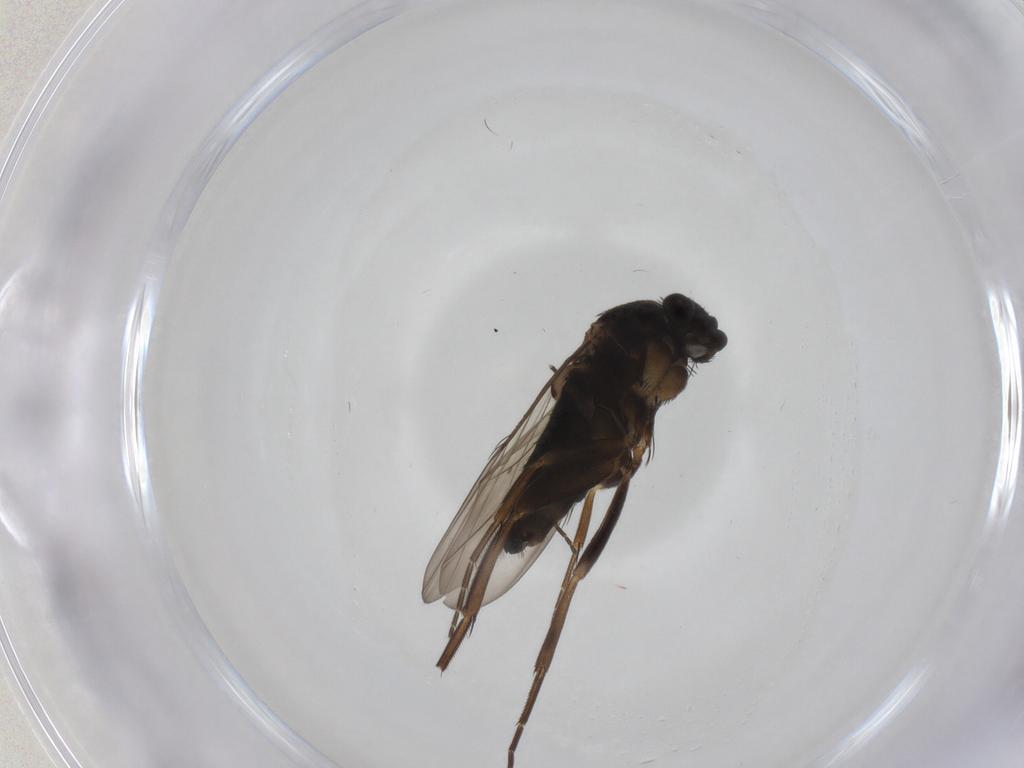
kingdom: Animalia
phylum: Arthropoda
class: Insecta
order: Diptera
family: Phoridae
